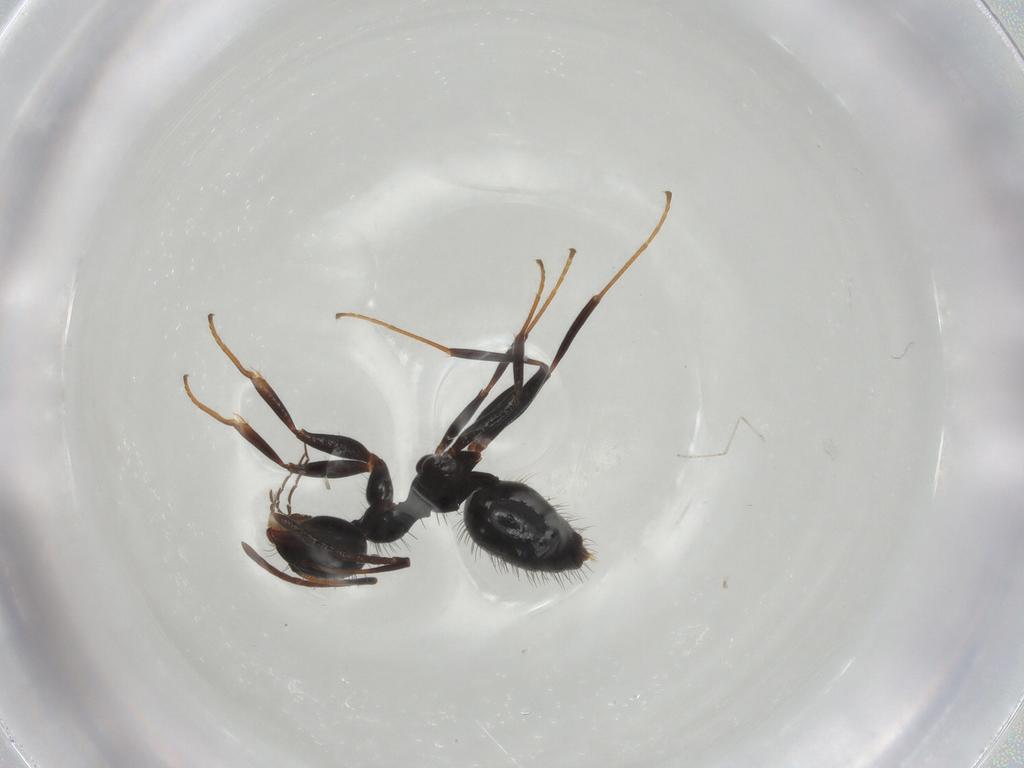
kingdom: Animalia
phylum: Arthropoda
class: Insecta
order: Hymenoptera
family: Formicidae
